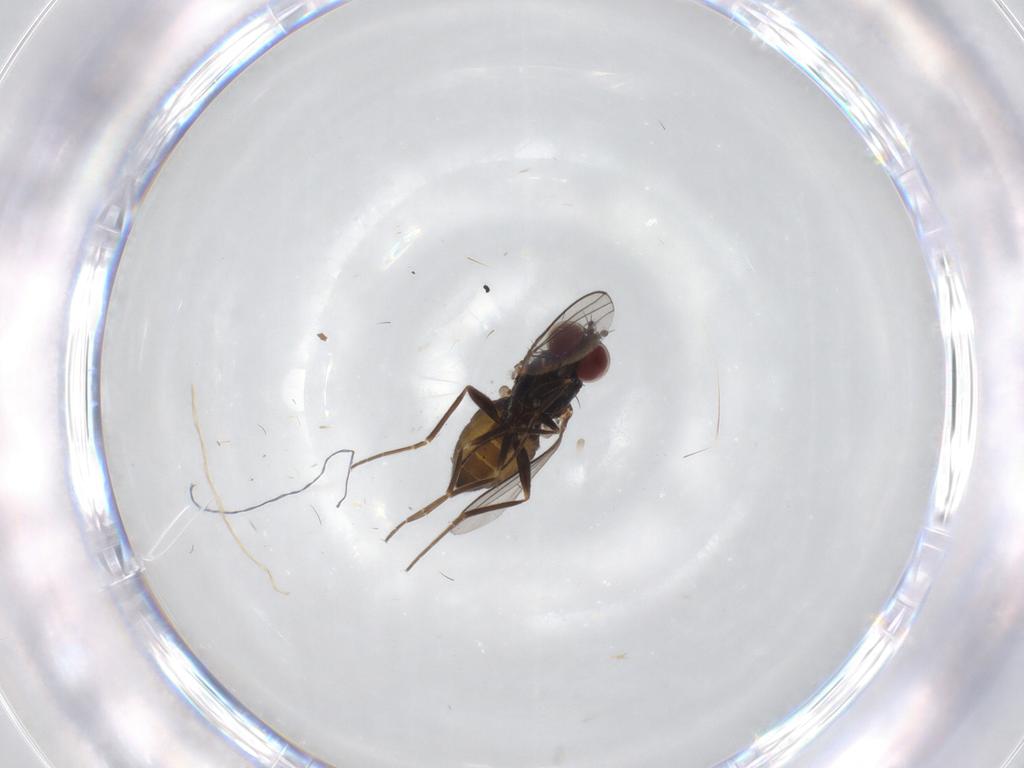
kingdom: Animalia
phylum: Arthropoda
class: Insecta
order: Diptera
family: Dolichopodidae
